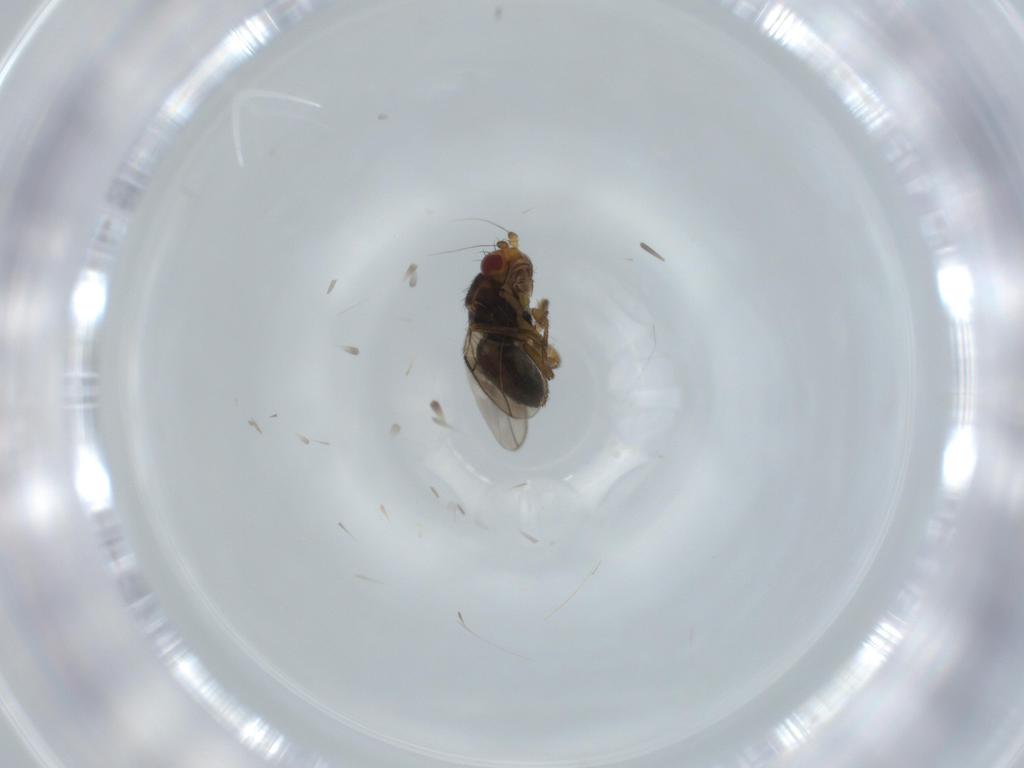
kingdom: Animalia
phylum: Arthropoda
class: Insecta
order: Diptera
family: Sphaeroceridae
